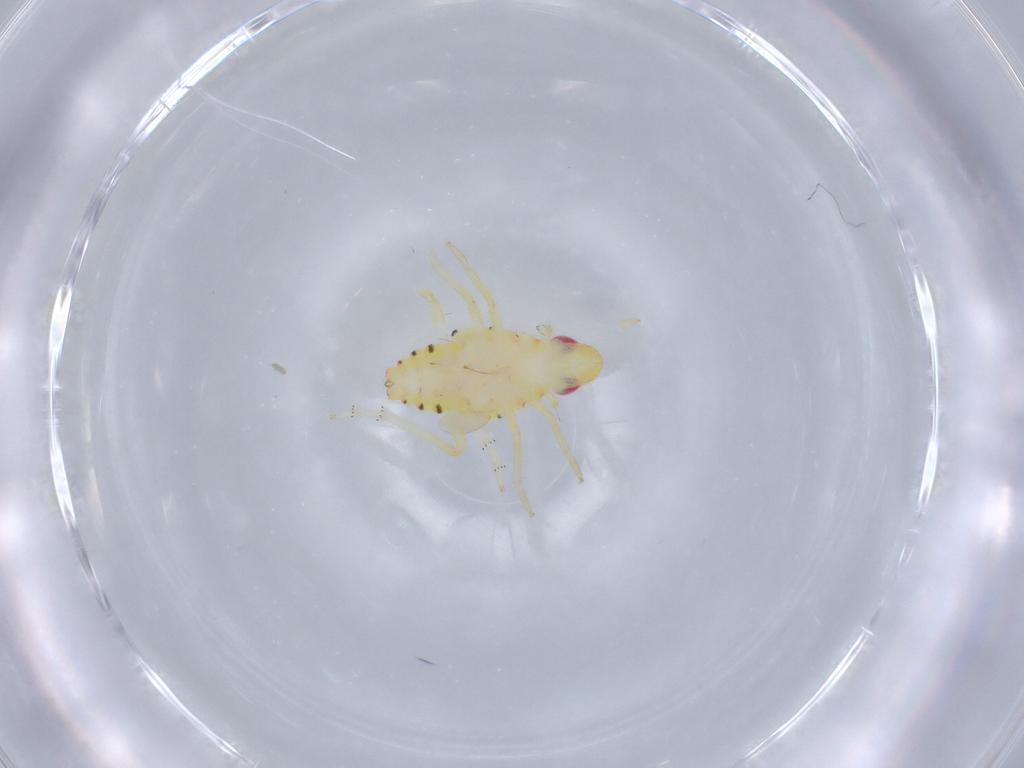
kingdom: Animalia
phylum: Arthropoda
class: Insecta
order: Hemiptera
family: Tropiduchidae
